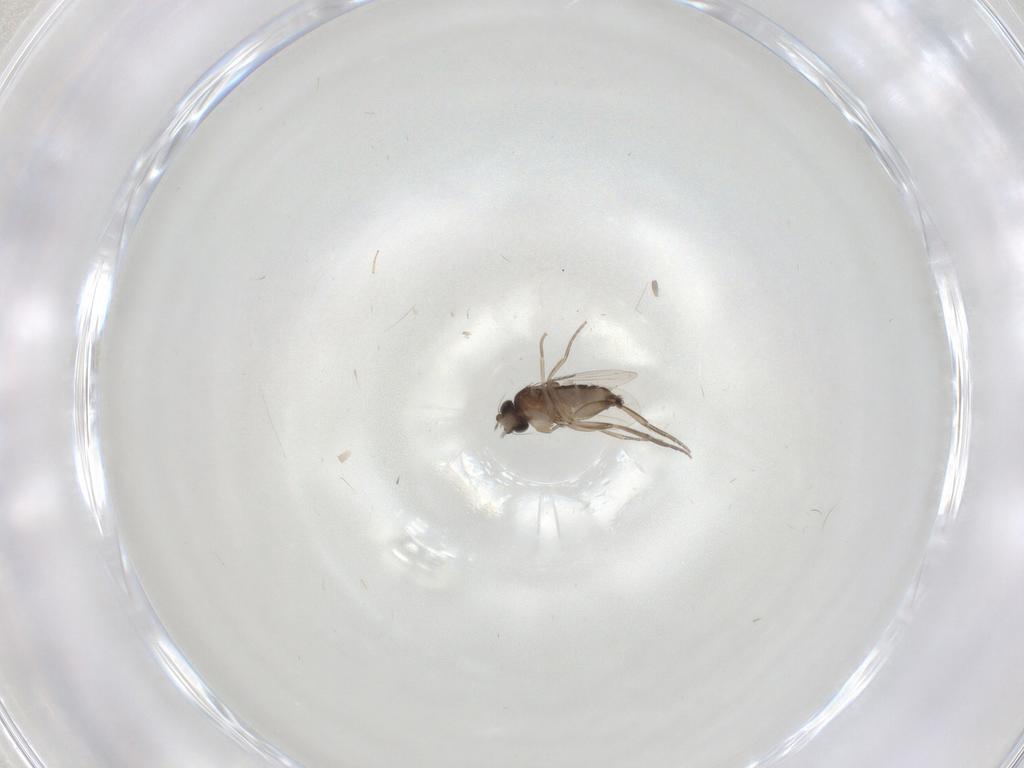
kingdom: Animalia
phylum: Arthropoda
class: Insecta
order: Diptera
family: Phoridae
